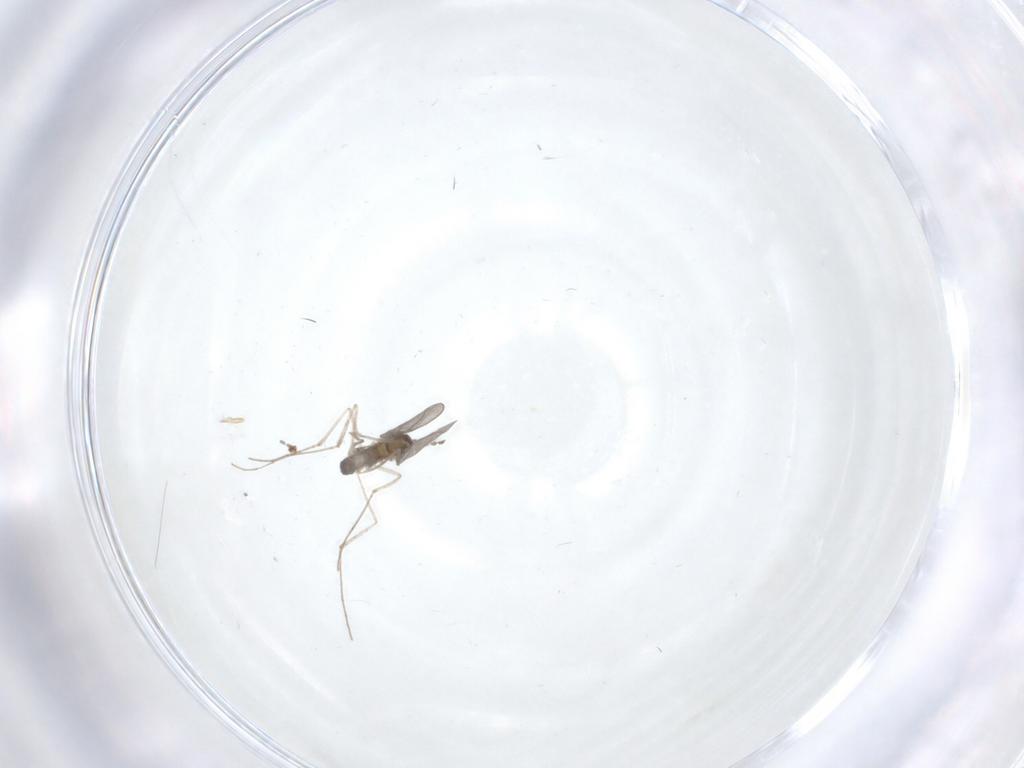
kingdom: Animalia
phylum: Arthropoda
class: Insecta
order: Diptera
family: Cecidomyiidae
